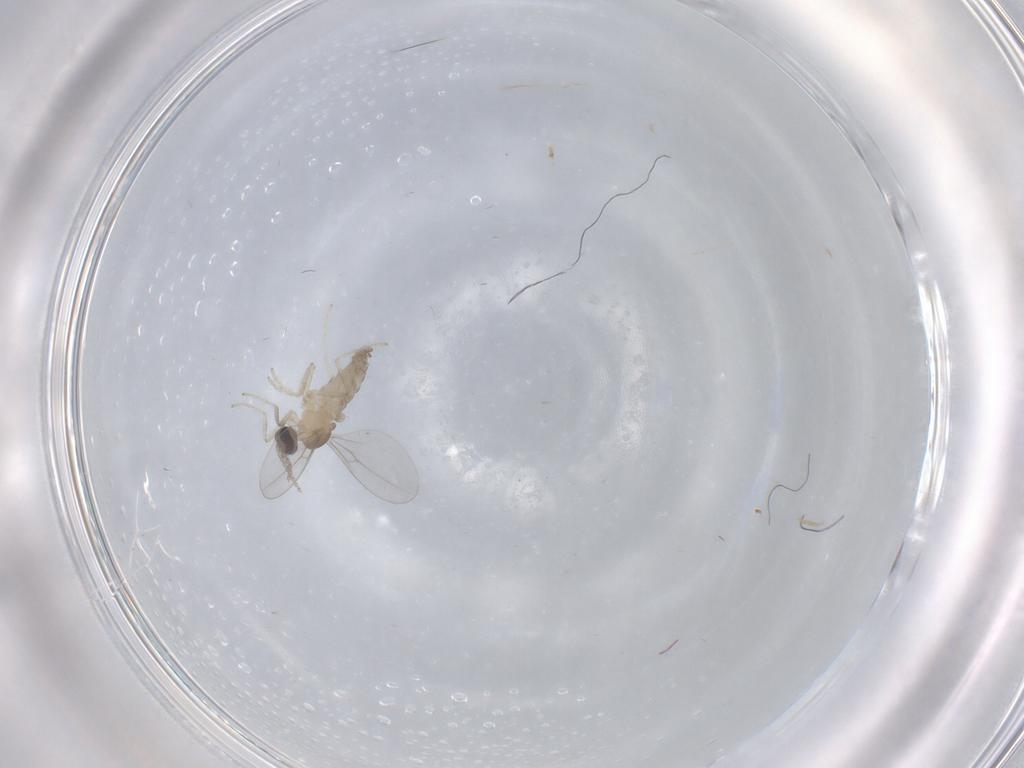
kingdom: Animalia
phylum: Arthropoda
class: Insecta
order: Diptera
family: Cecidomyiidae
